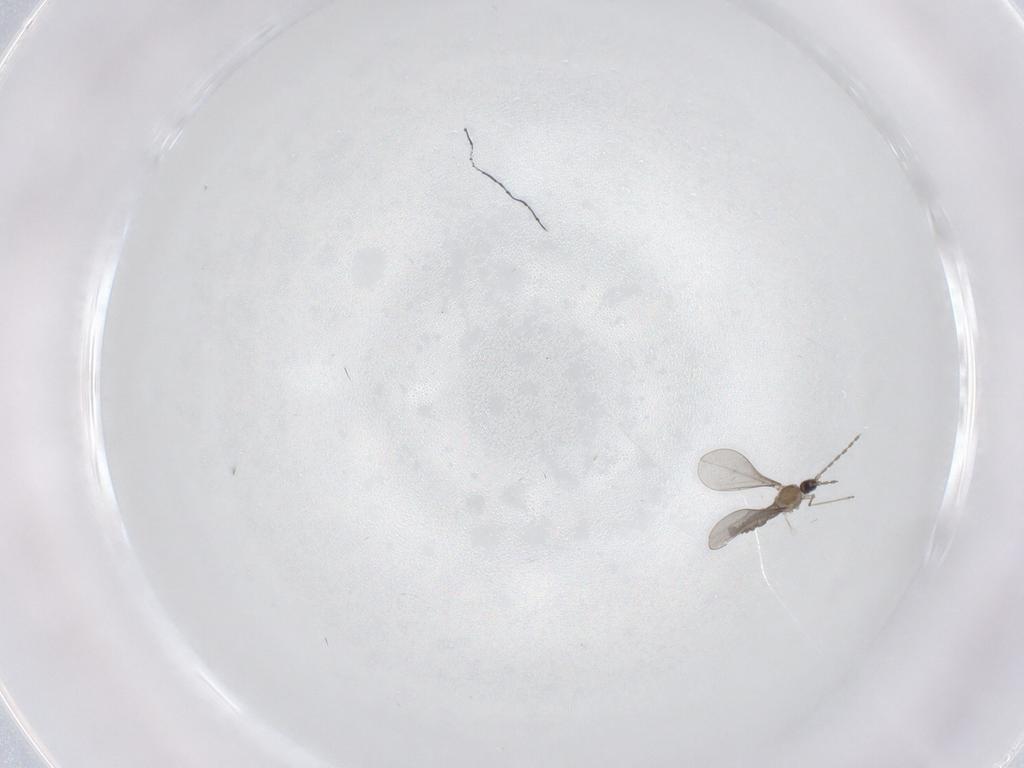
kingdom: Animalia
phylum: Arthropoda
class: Insecta
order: Diptera
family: Cecidomyiidae
